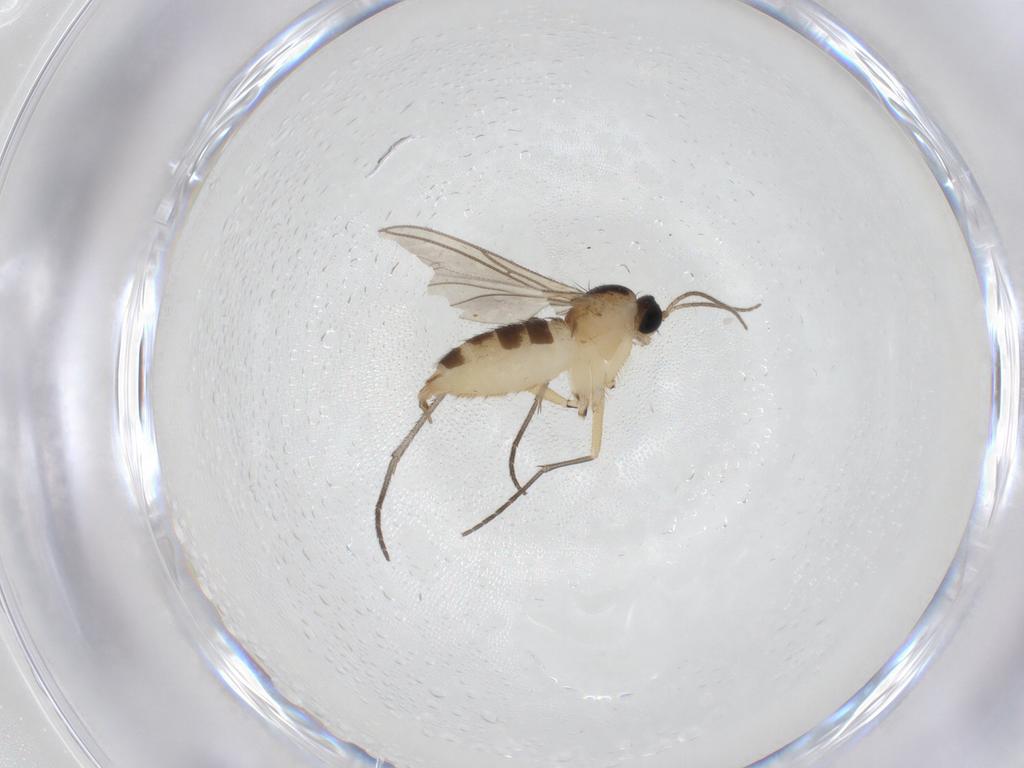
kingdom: Animalia
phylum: Arthropoda
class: Insecta
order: Diptera
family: Sciaridae
